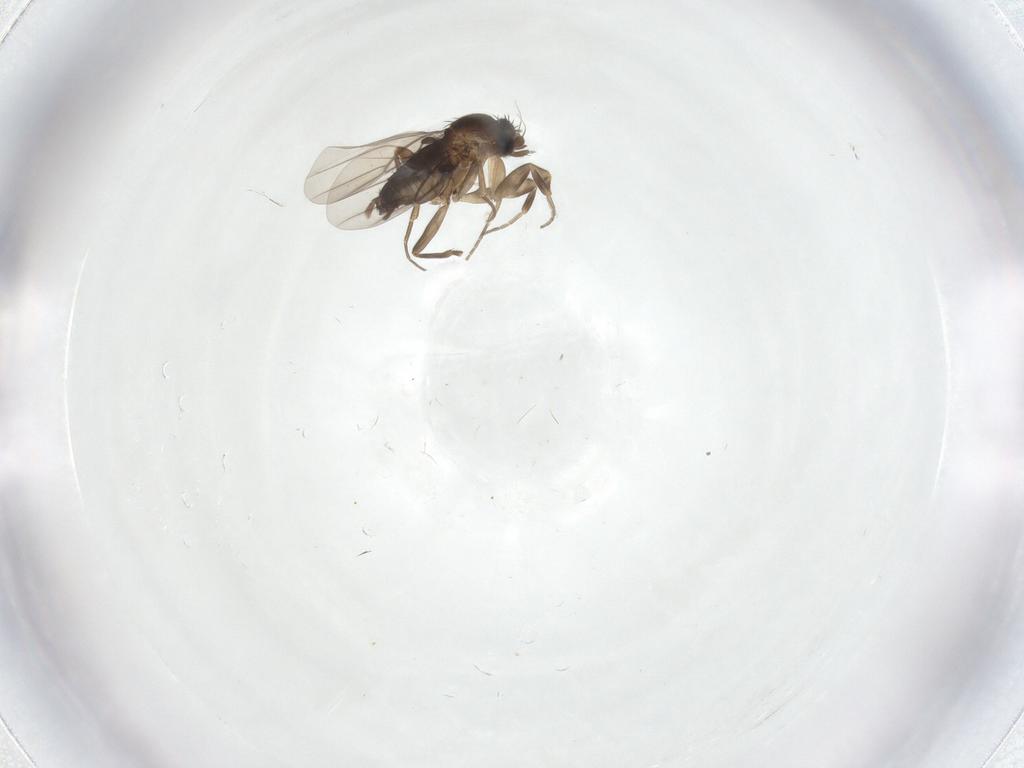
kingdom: Animalia
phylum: Arthropoda
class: Insecta
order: Diptera
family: Phoridae
